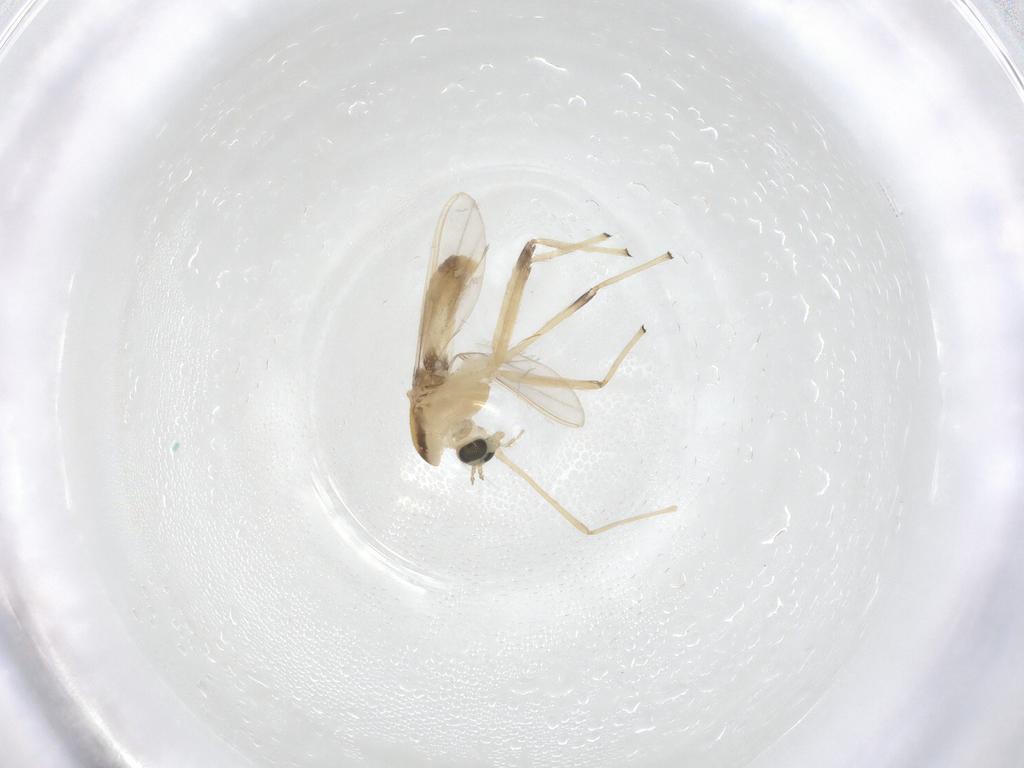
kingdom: Animalia
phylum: Arthropoda
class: Insecta
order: Diptera
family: Chironomidae
